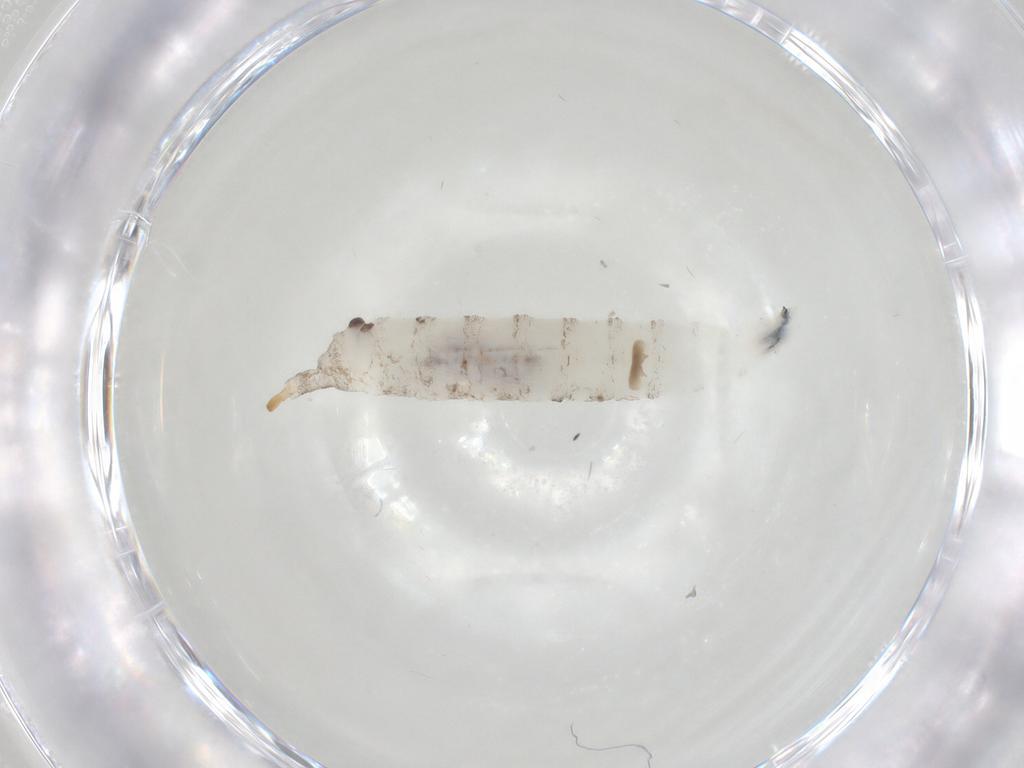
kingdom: Animalia
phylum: Arthropoda
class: Insecta
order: Diptera
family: Drosophilidae
